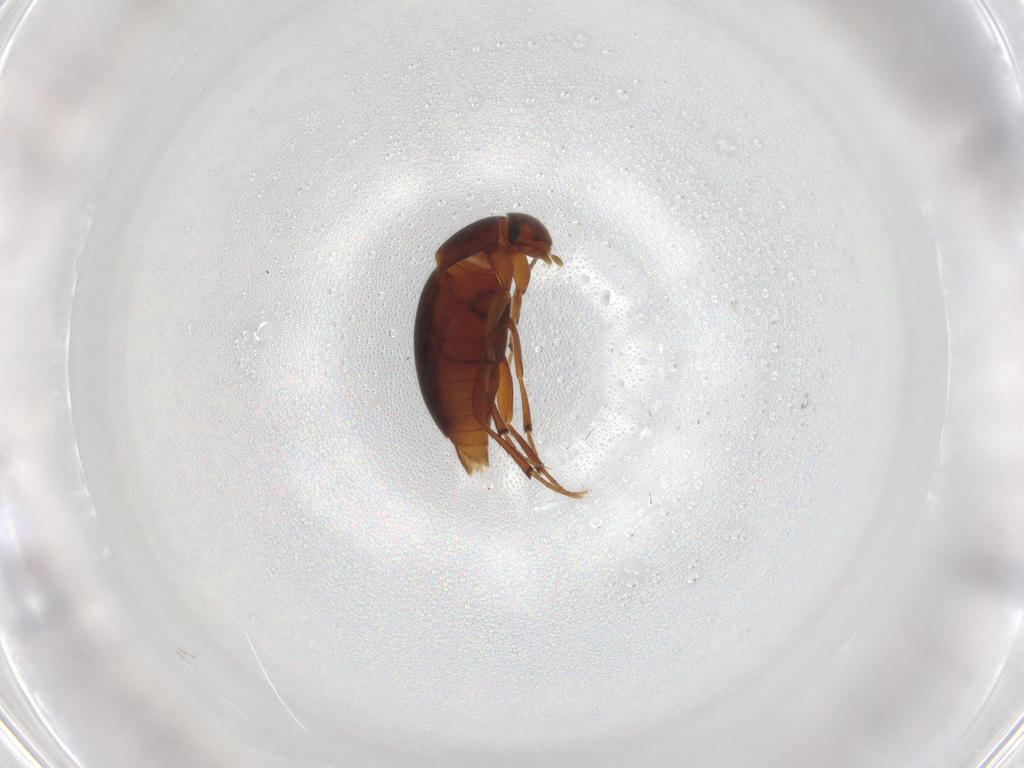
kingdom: Animalia
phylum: Arthropoda
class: Insecta
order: Coleoptera
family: Leiodidae
